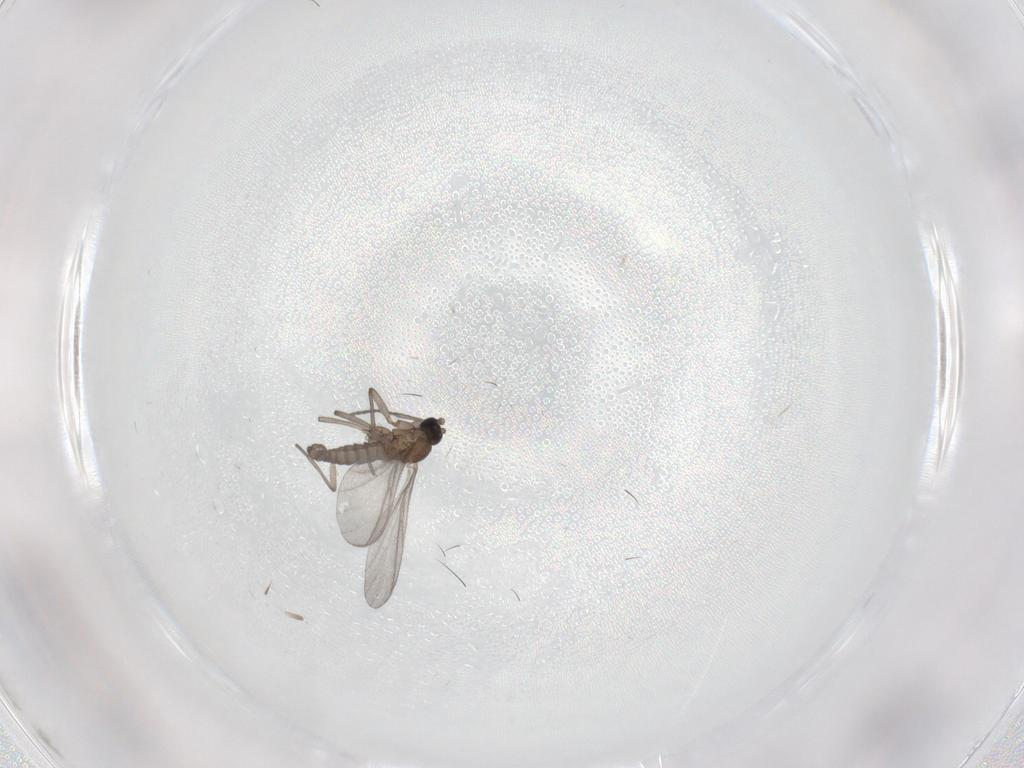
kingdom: Animalia
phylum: Arthropoda
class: Insecta
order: Diptera
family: Sciaridae
